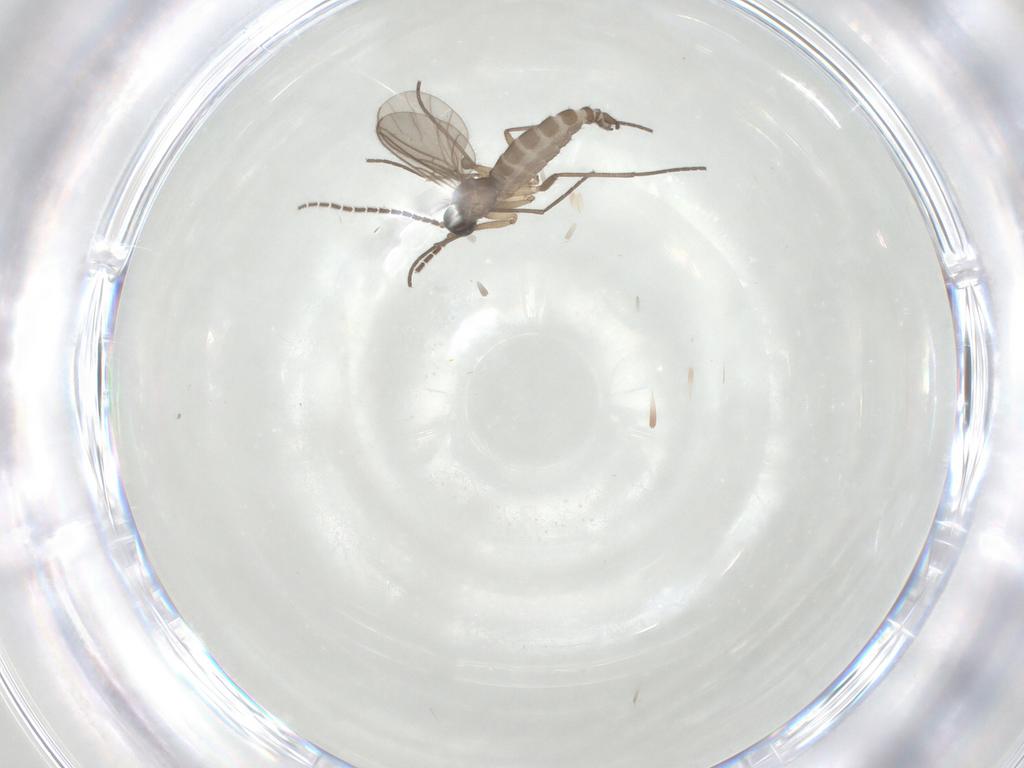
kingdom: Animalia
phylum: Arthropoda
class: Insecta
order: Diptera
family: Sciaridae
